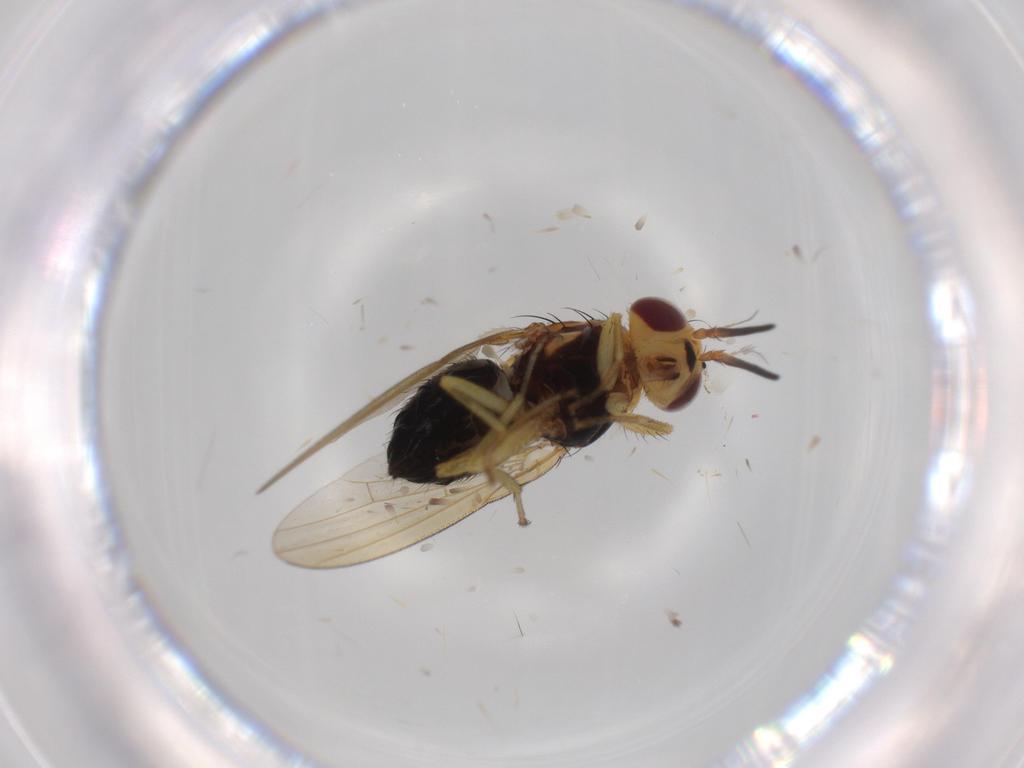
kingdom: Animalia
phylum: Arthropoda
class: Insecta
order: Diptera
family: Lauxaniidae
